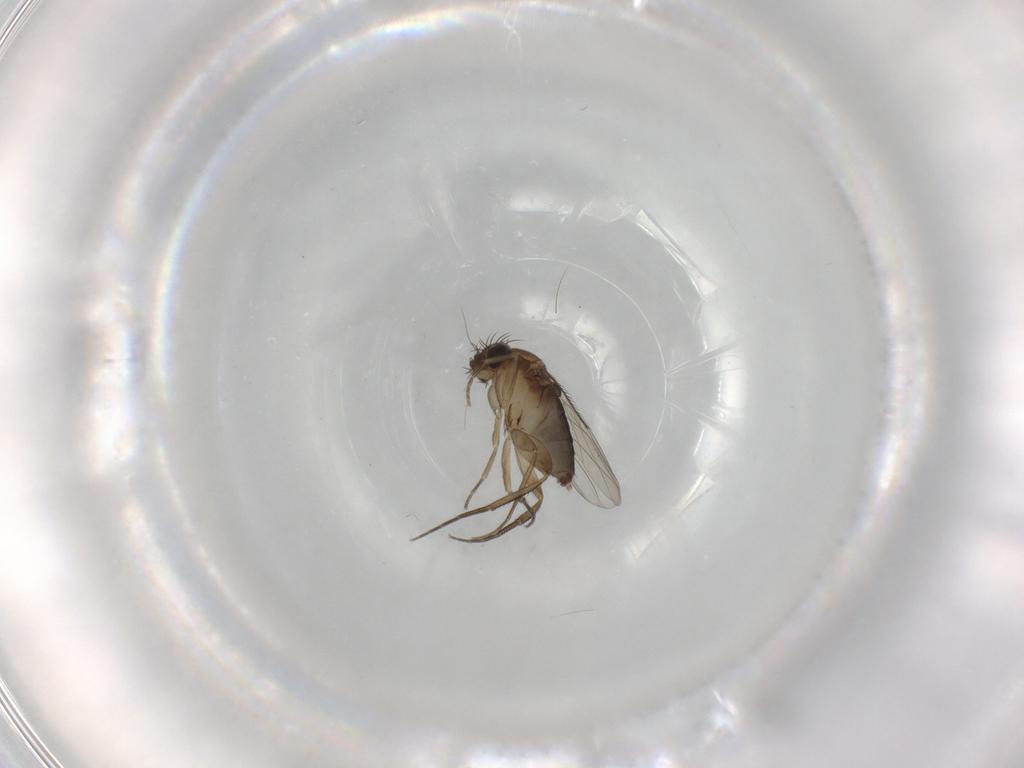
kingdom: Animalia
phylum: Arthropoda
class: Insecta
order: Diptera
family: Phoridae
